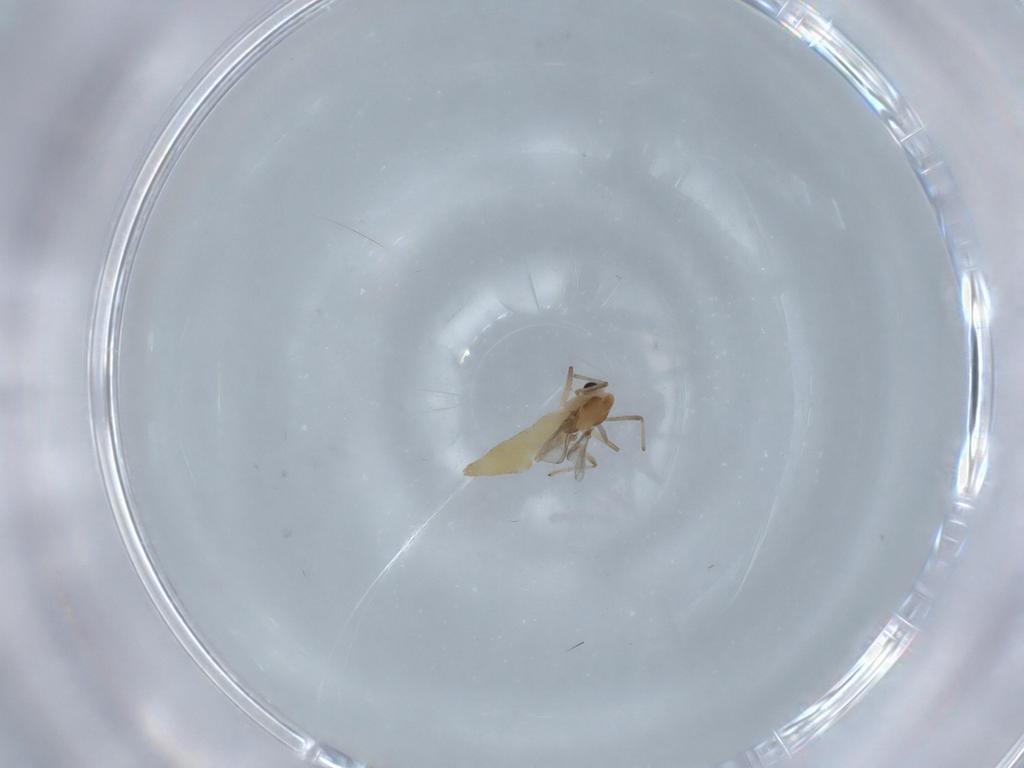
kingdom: Animalia
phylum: Arthropoda
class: Insecta
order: Diptera
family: Chironomidae
